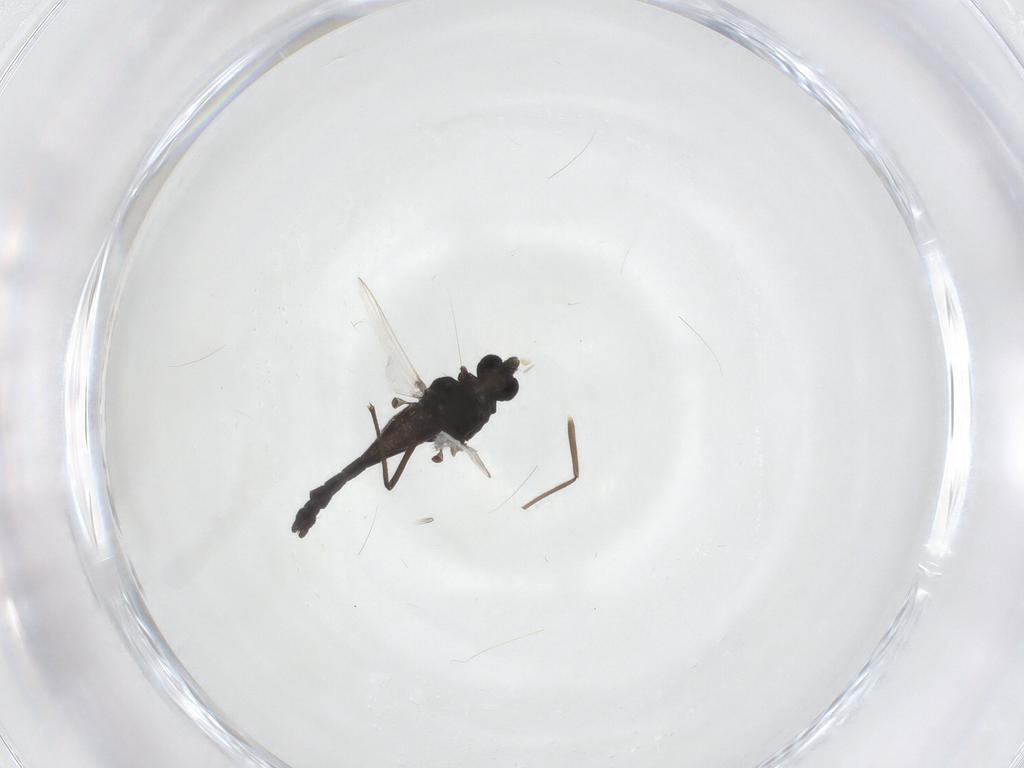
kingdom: Animalia
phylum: Arthropoda
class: Insecta
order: Diptera
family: Chironomidae
